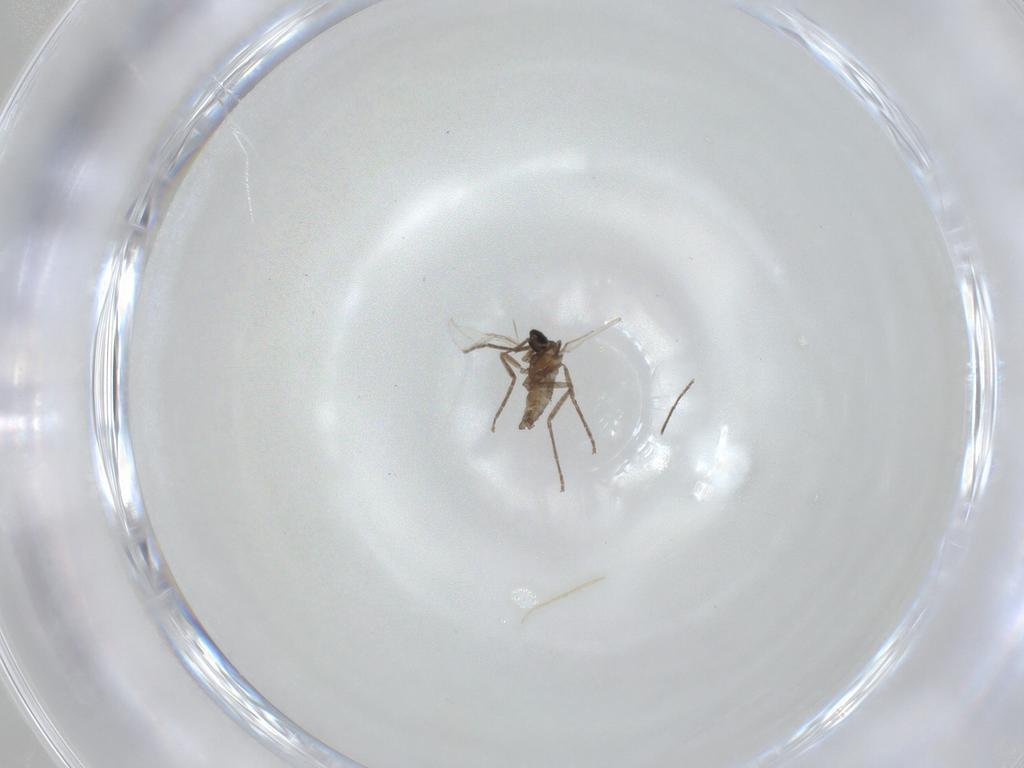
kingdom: Animalia
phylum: Arthropoda
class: Insecta
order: Diptera
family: Cecidomyiidae
